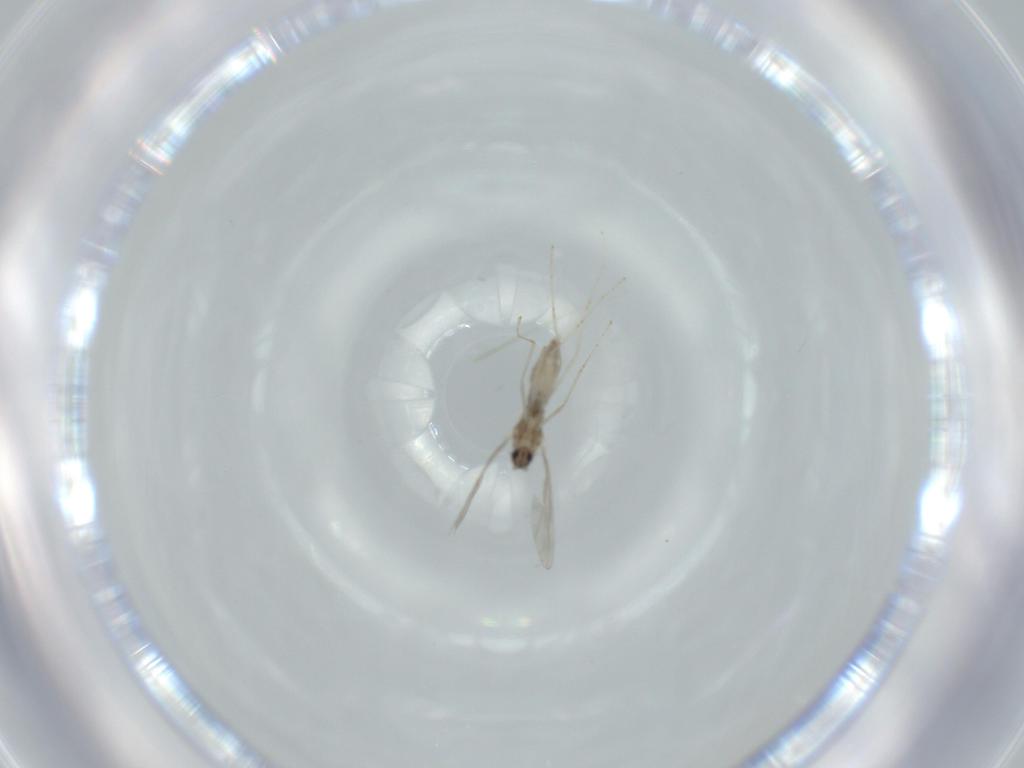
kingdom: Animalia
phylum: Arthropoda
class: Insecta
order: Diptera
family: Cecidomyiidae
